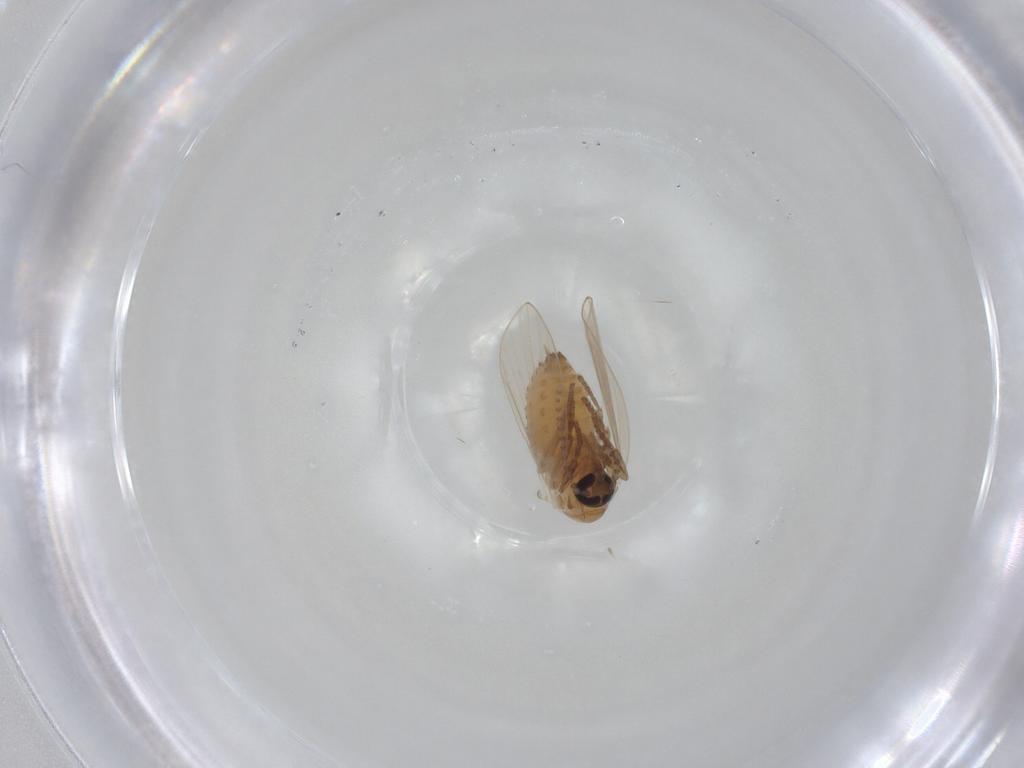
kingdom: Animalia
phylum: Arthropoda
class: Insecta
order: Diptera
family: Psychodidae
